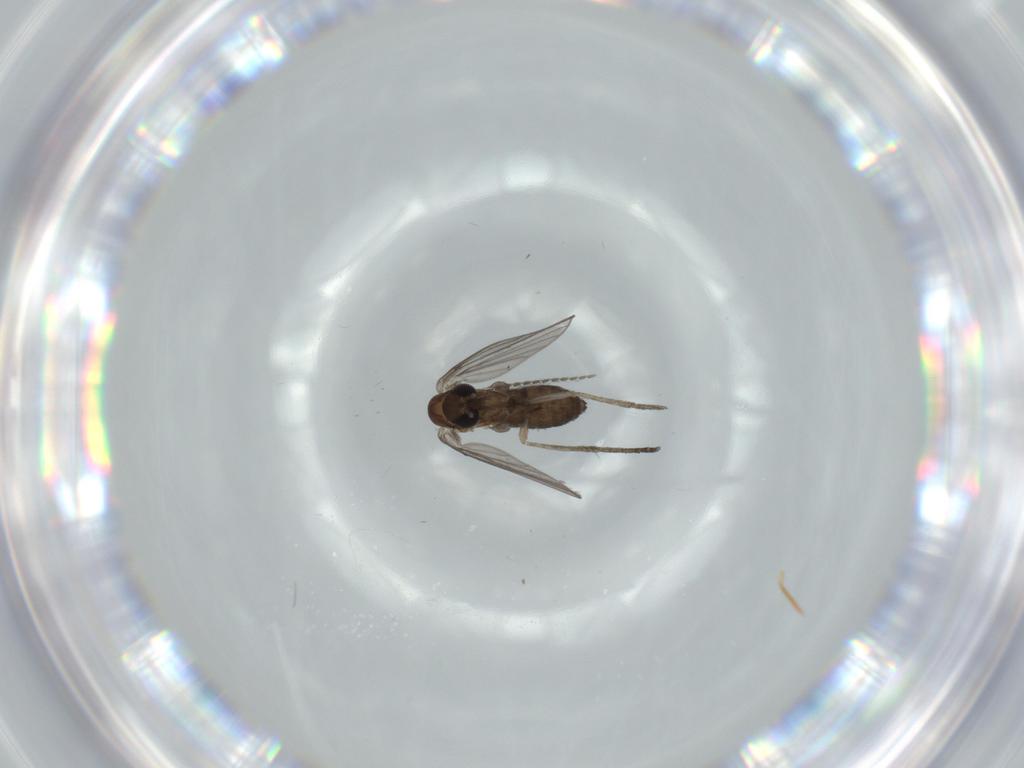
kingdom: Animalia
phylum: Arthropoda
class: Insecta
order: Diptera
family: Psychodidae
